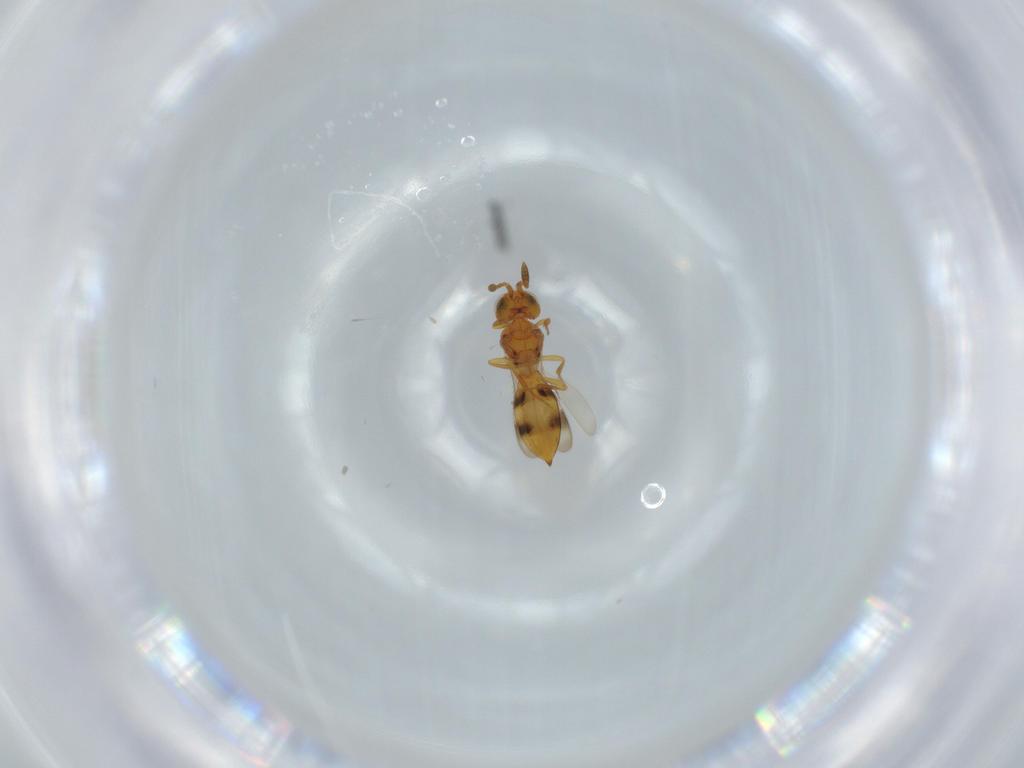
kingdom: Animalia
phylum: Arthropoda
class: Insecta
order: Hymenoptera
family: Scelionidae
